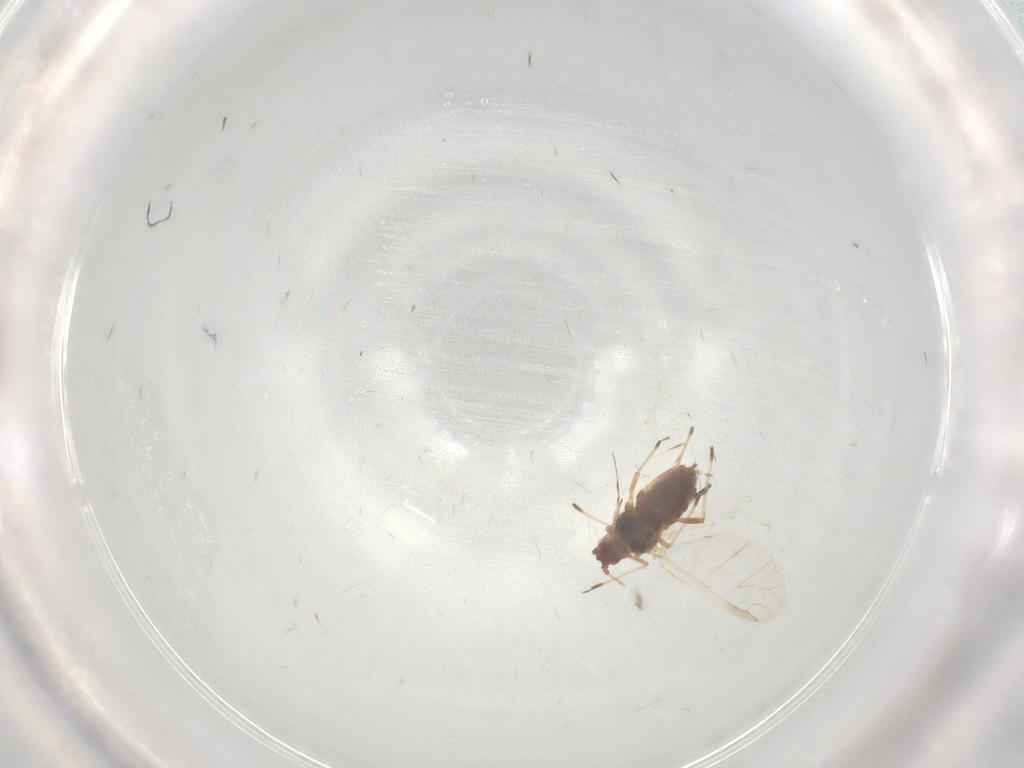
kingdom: Animalia
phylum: Arthropoda
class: Insecta
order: Hemiptera
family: Aphididae
